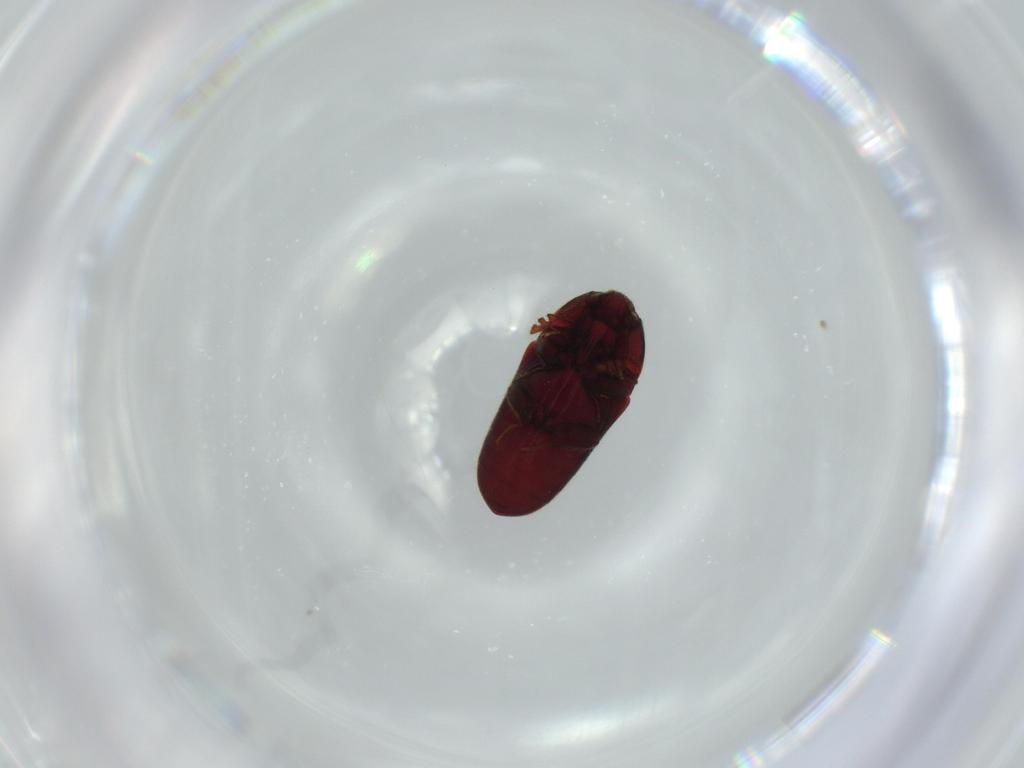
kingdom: Animalia
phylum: Arthropoda
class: Insecta
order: Coleoptera
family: Throscidae
